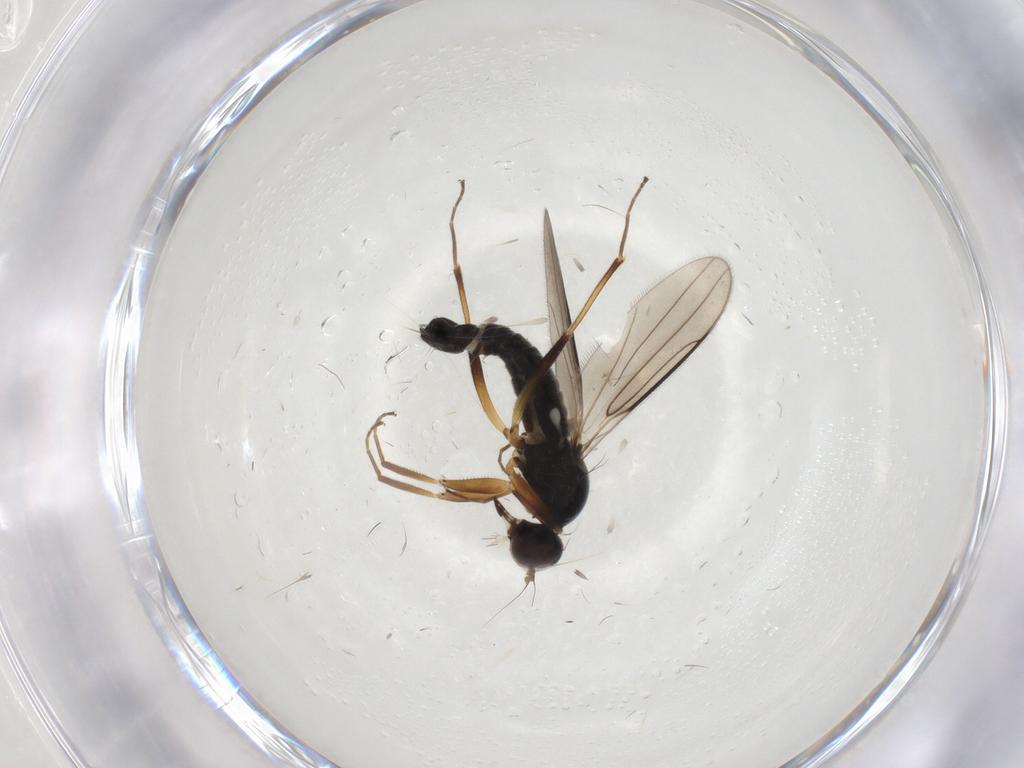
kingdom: Animalia
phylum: Arthropoda
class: Insecta
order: Diptera
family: Hybotidae
